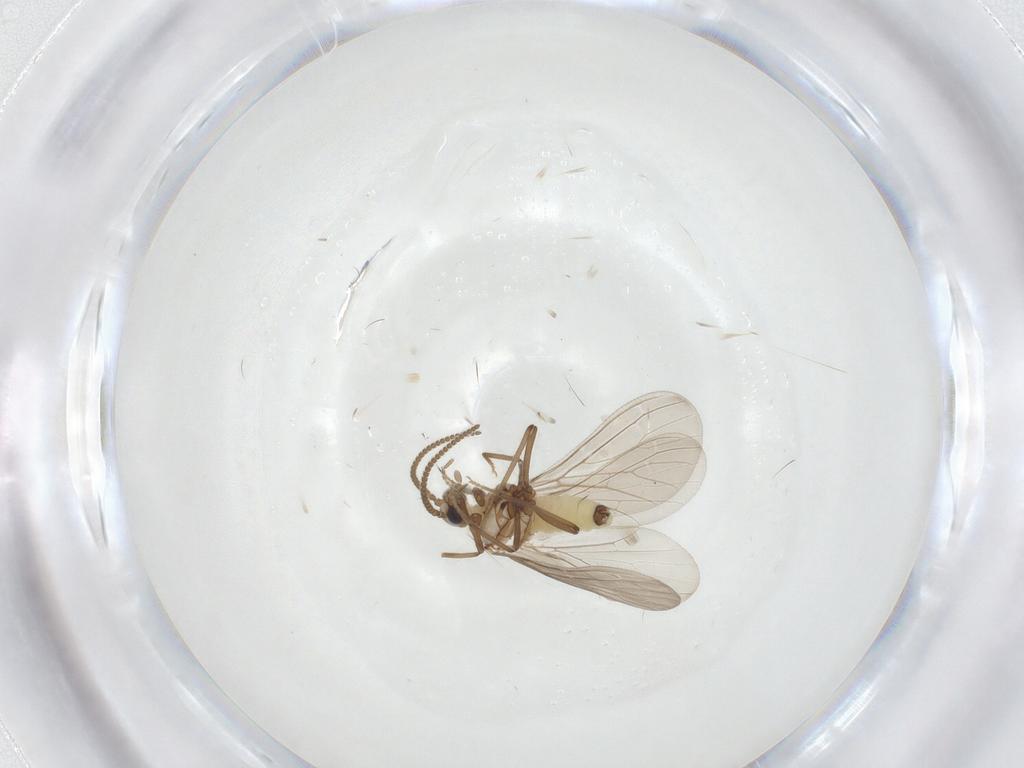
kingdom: Animalia
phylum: Arthropoda
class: Insecta
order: Neuroptera
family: Coniopterygidae
